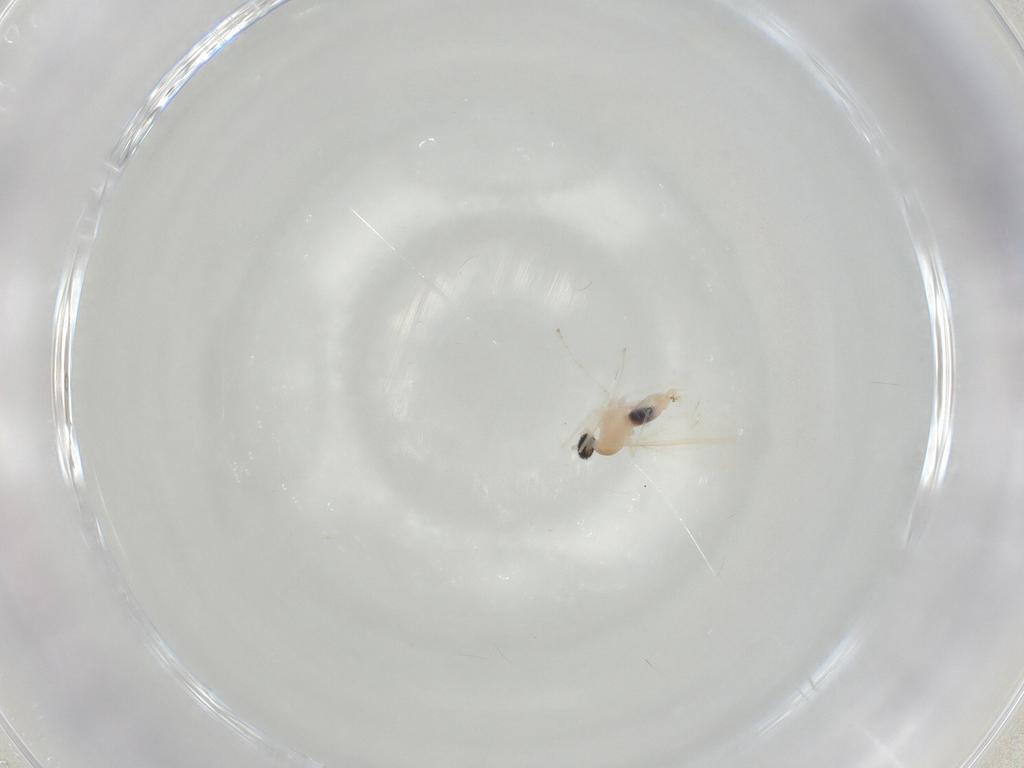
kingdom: Animalia
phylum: Arthropoda
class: Insecta
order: Diptera
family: Cecidomyiidae
